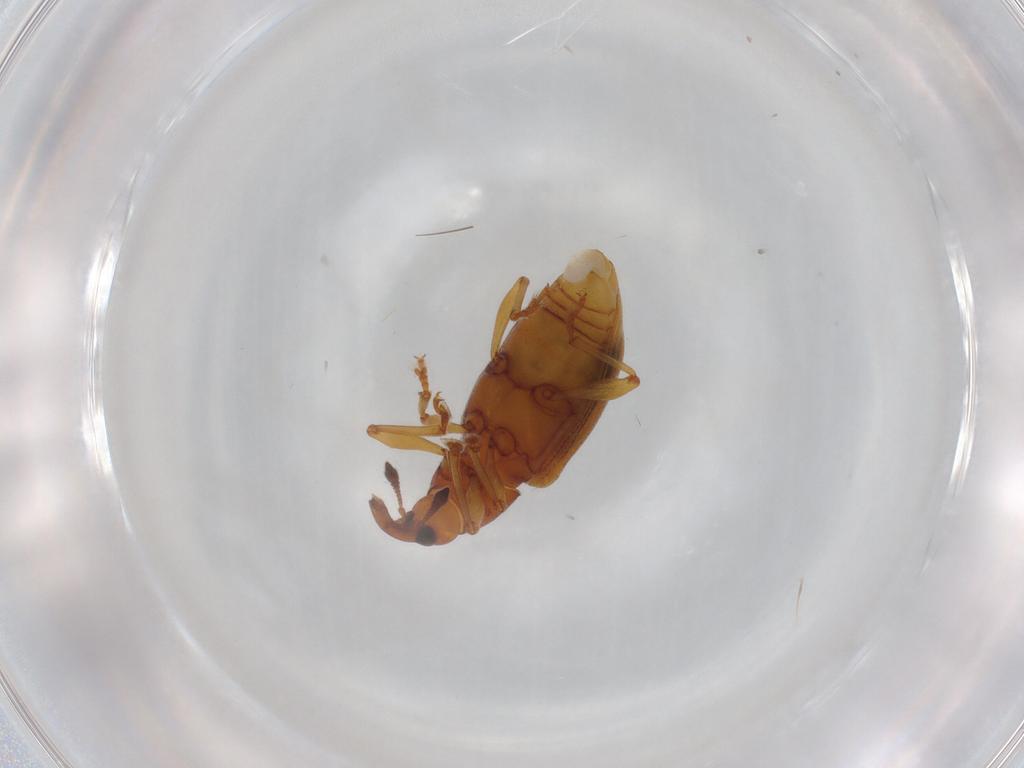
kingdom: Animalia
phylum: Arthropoda
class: Insecta
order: Coleoptera
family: Curculionidae
